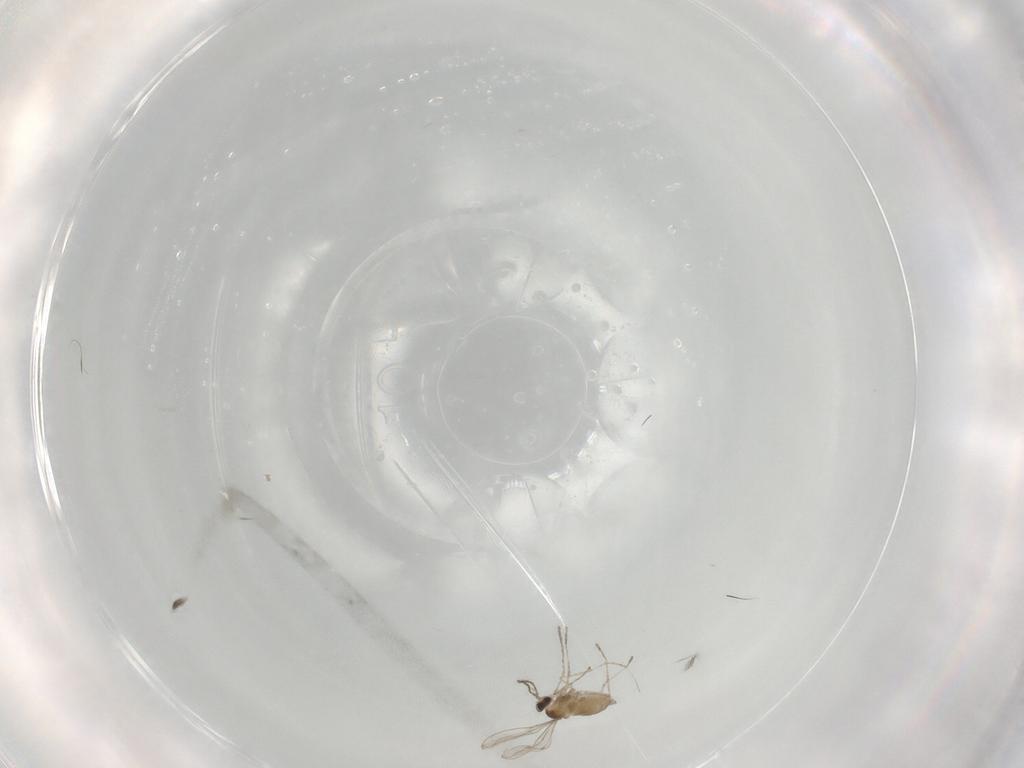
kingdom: Animalia
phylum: Arthropoda
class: Insecta
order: Diptera
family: Cecidomyiidae
